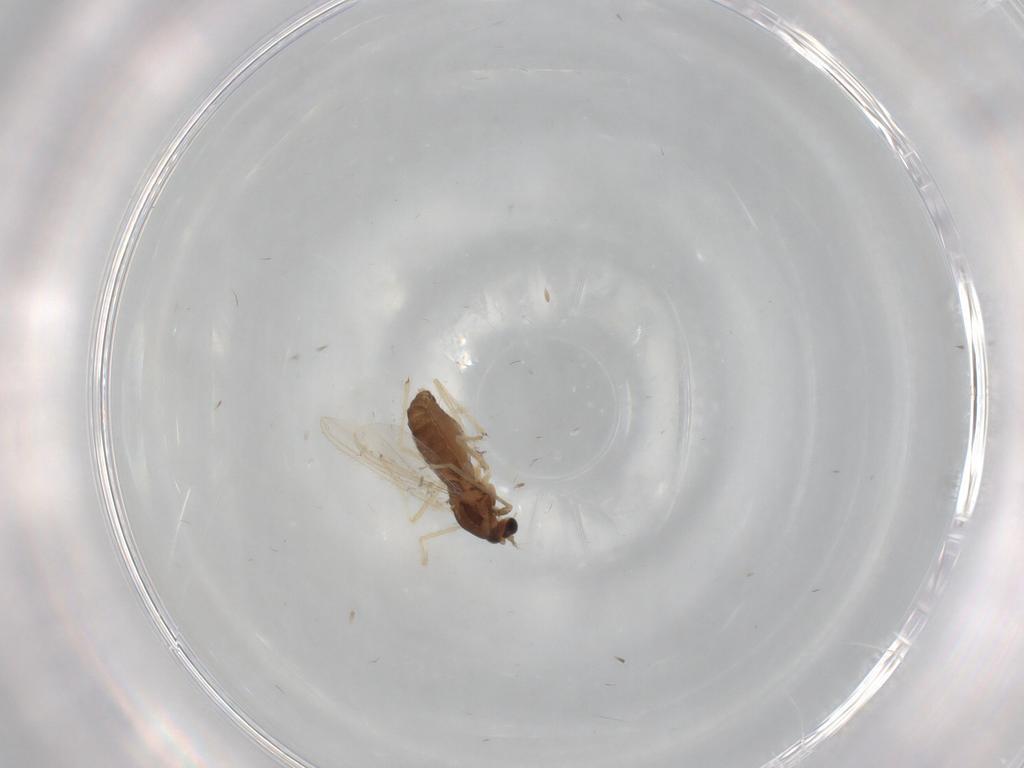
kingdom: Animalia
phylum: Arthropoda
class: Insecta
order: Diptera
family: Chironomidae
